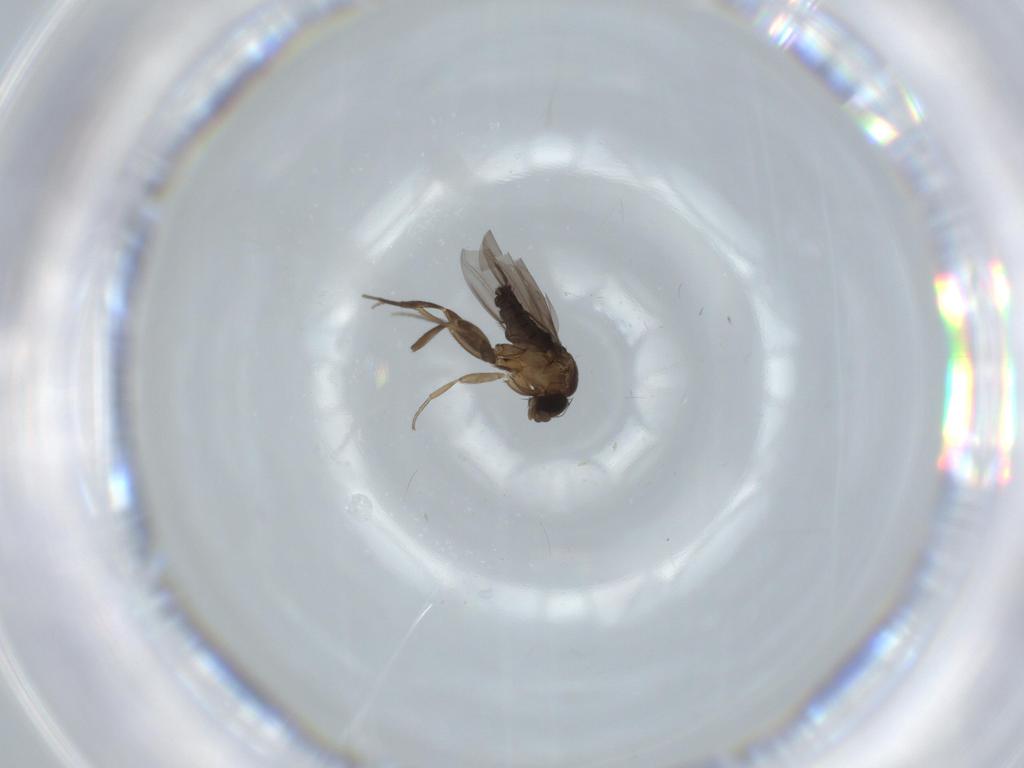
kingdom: Animalia
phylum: Arthropoda
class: Insecta
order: Diptera
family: Phoridae
